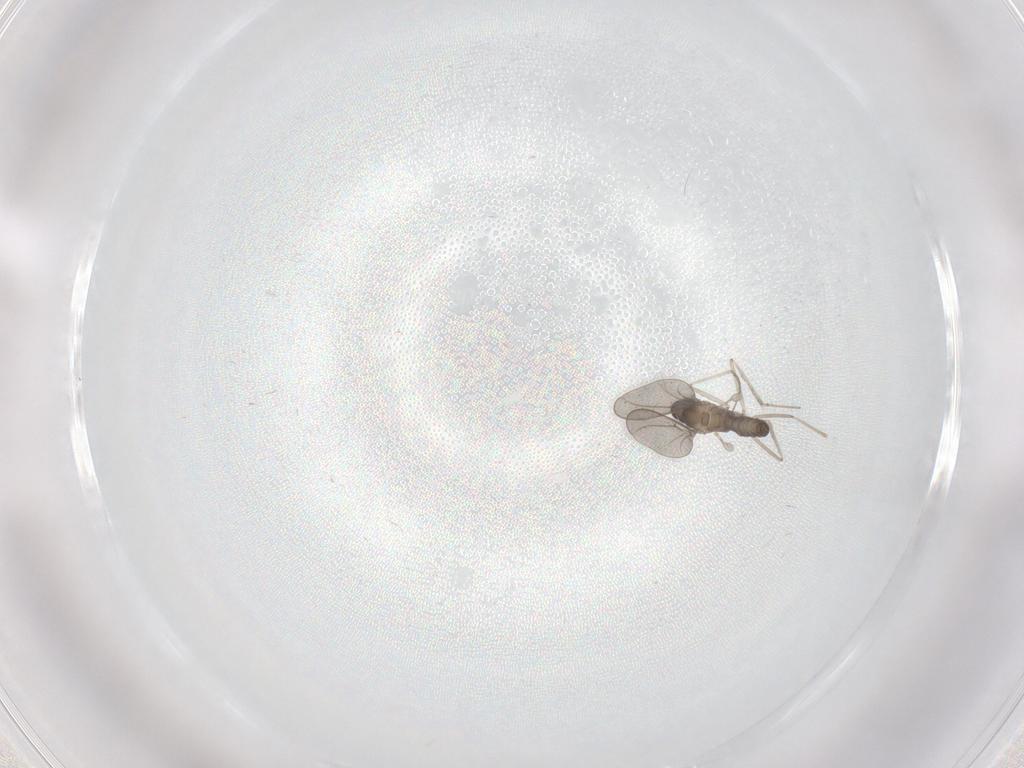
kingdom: Animalia
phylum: Arthropoda
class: Insecta
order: Diptera
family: Cecidomyiidae
